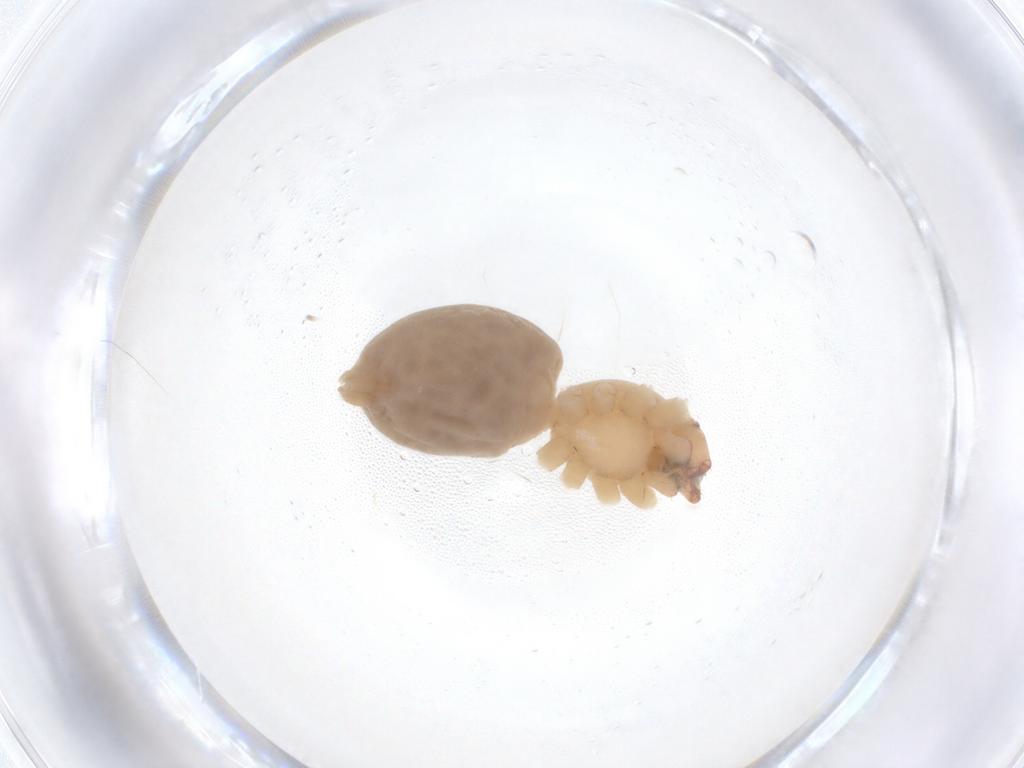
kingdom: Animalia
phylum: Arthropoda
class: Arachnida
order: Araneae
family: Cheiracanthiidae
